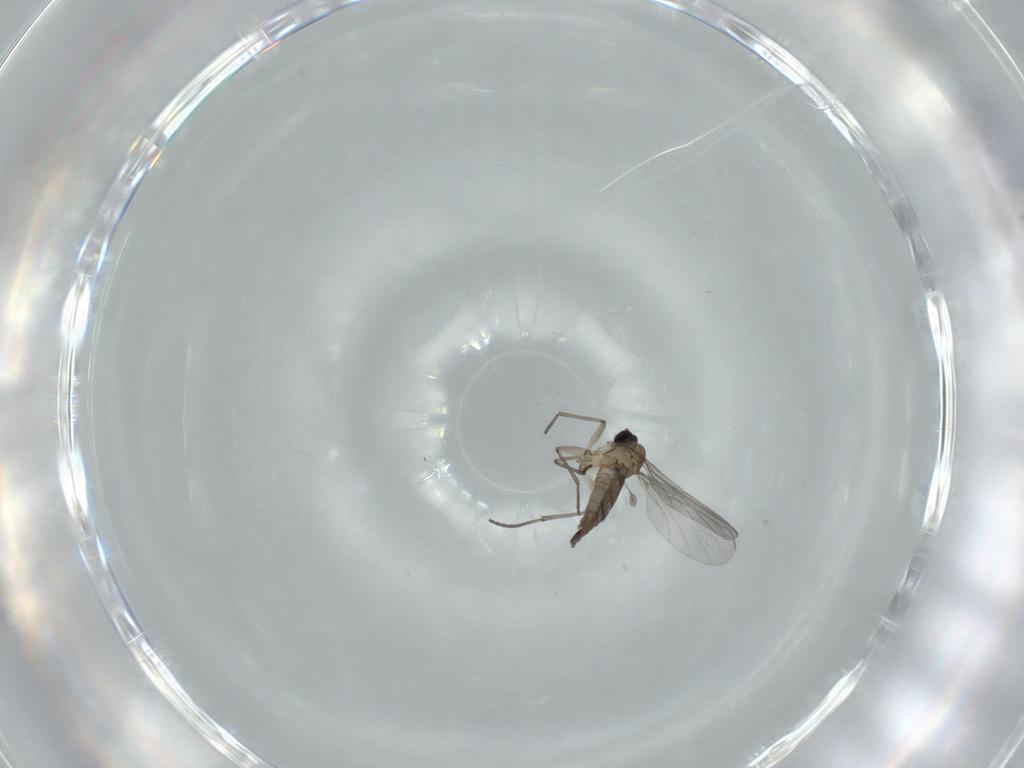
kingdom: Animalia
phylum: Arthropoda
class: Insecta
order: Diptera
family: Sciaridae
